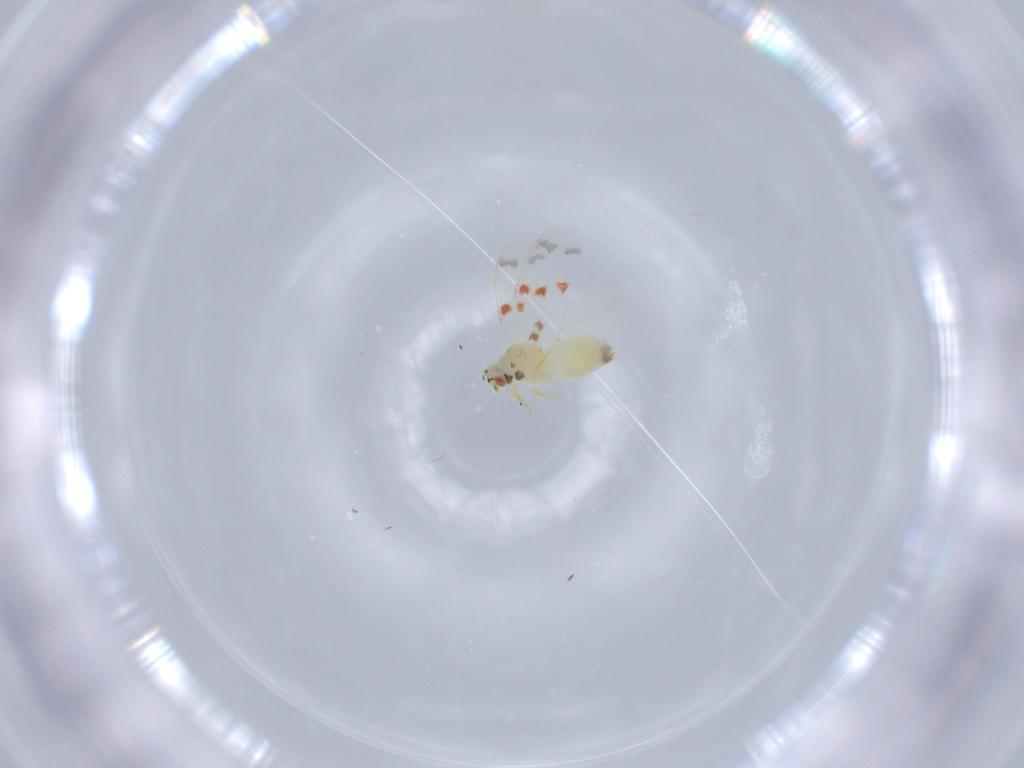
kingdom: Animalia
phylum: Arthropoda
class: Insecta
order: Hemiptera
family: Aleyrodidae
